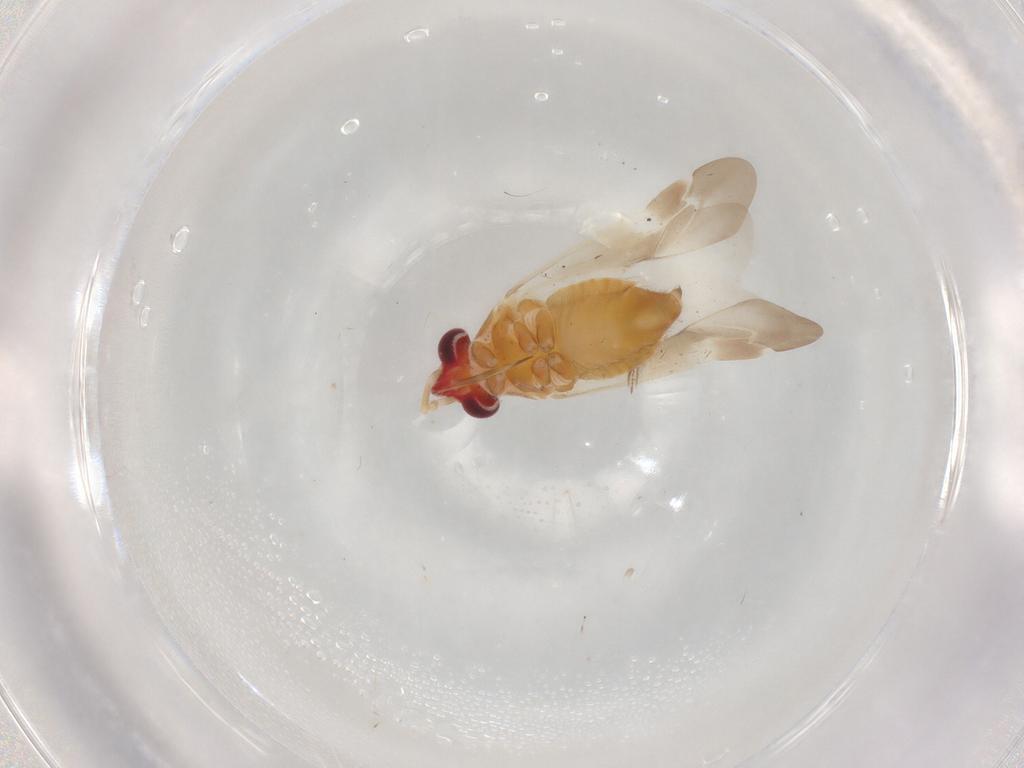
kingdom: Animalia
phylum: Arthropoda
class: Insecta
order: Hemiptera
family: Miridae
